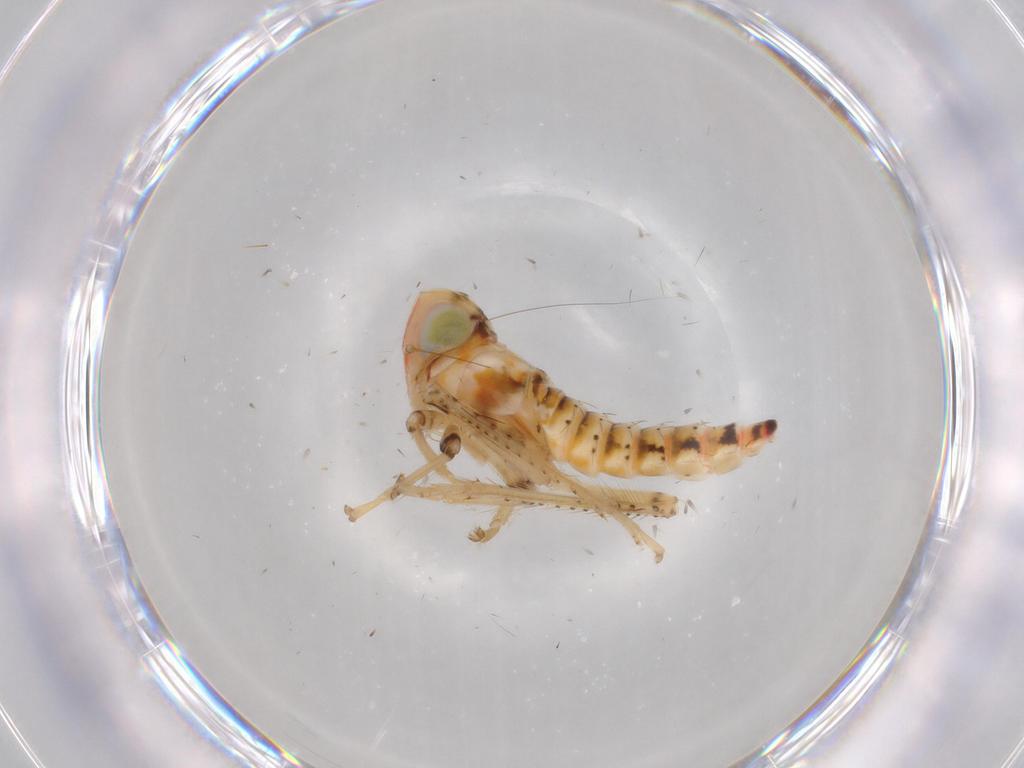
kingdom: Animalia
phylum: Arthropoda
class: Insecta
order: Hemiptera
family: Cicadellidae
